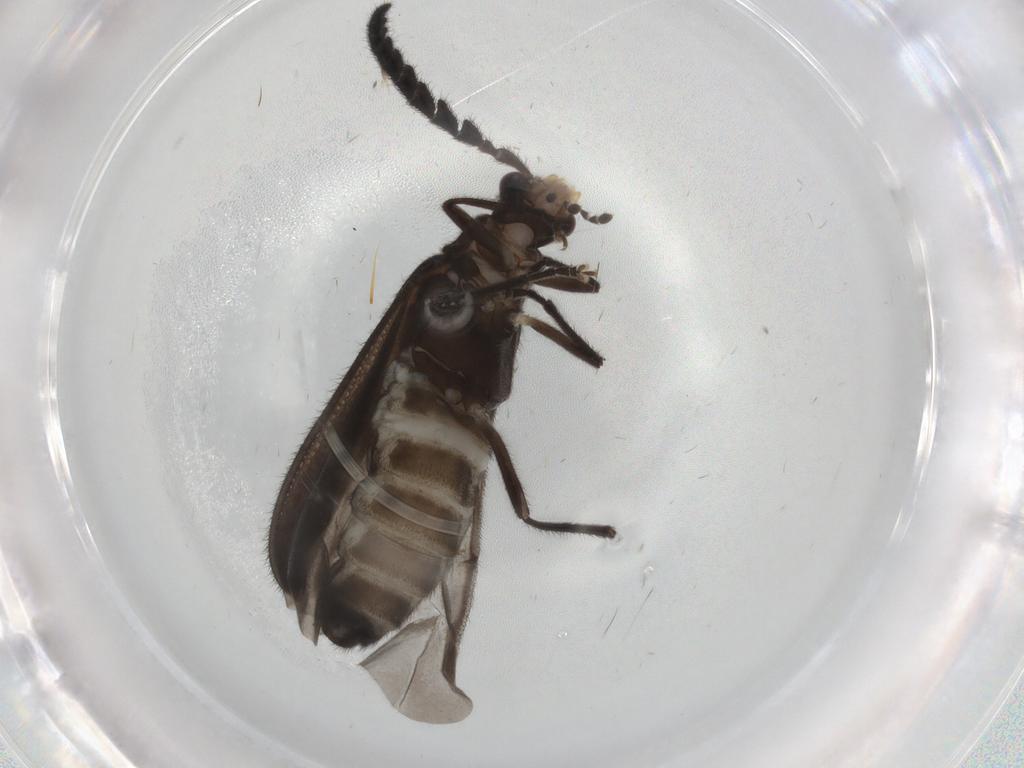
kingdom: Animalia
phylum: Arthropoda
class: Insecta
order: Coleoptera
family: Cantharidae
